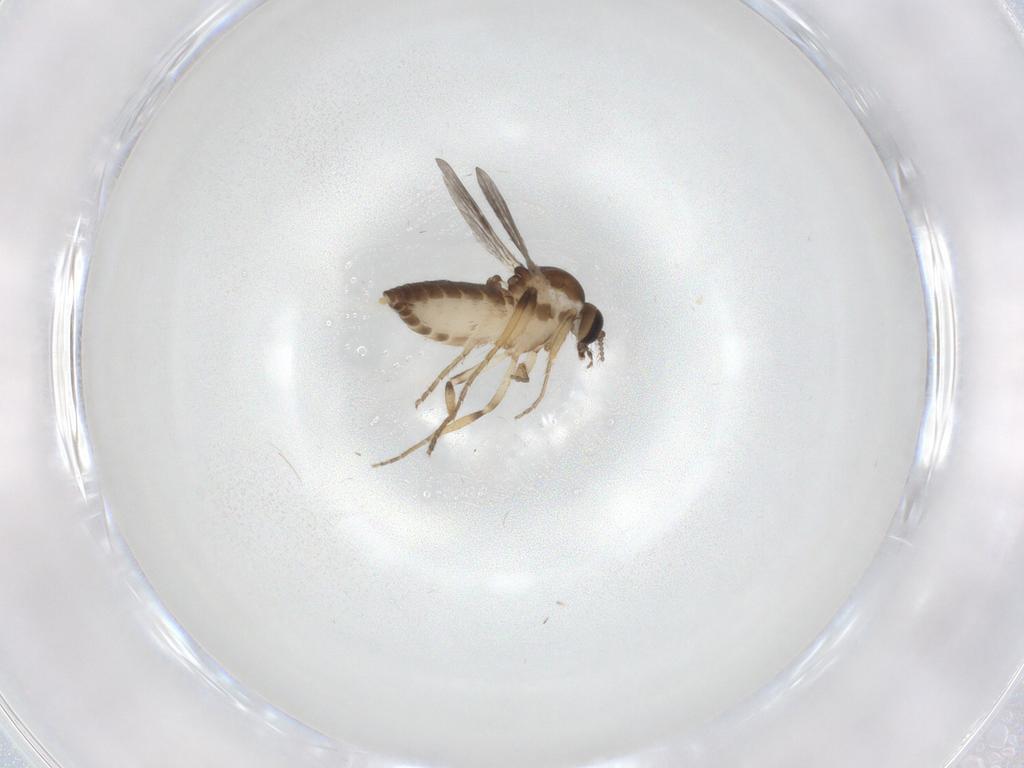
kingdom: Animalia
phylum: Arthropoda
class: Insecta
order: Diptera
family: Ceratopogonidae
